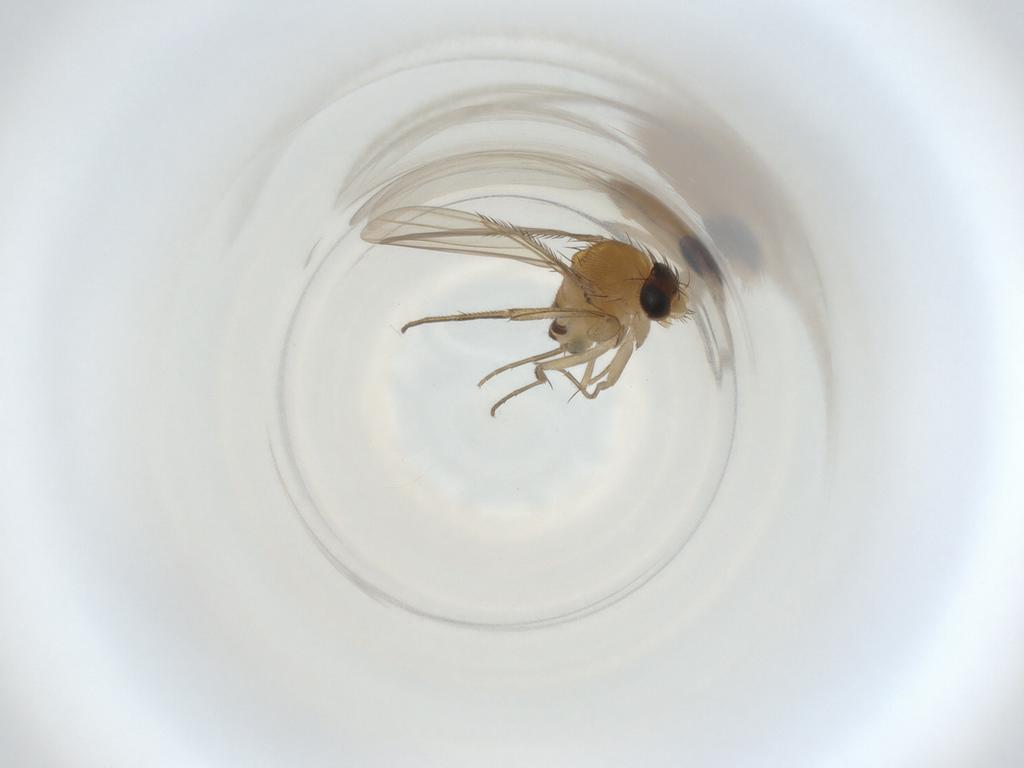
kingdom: Animalia
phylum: Arthropoda
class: Insecta
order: Diptera
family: Phoridae
